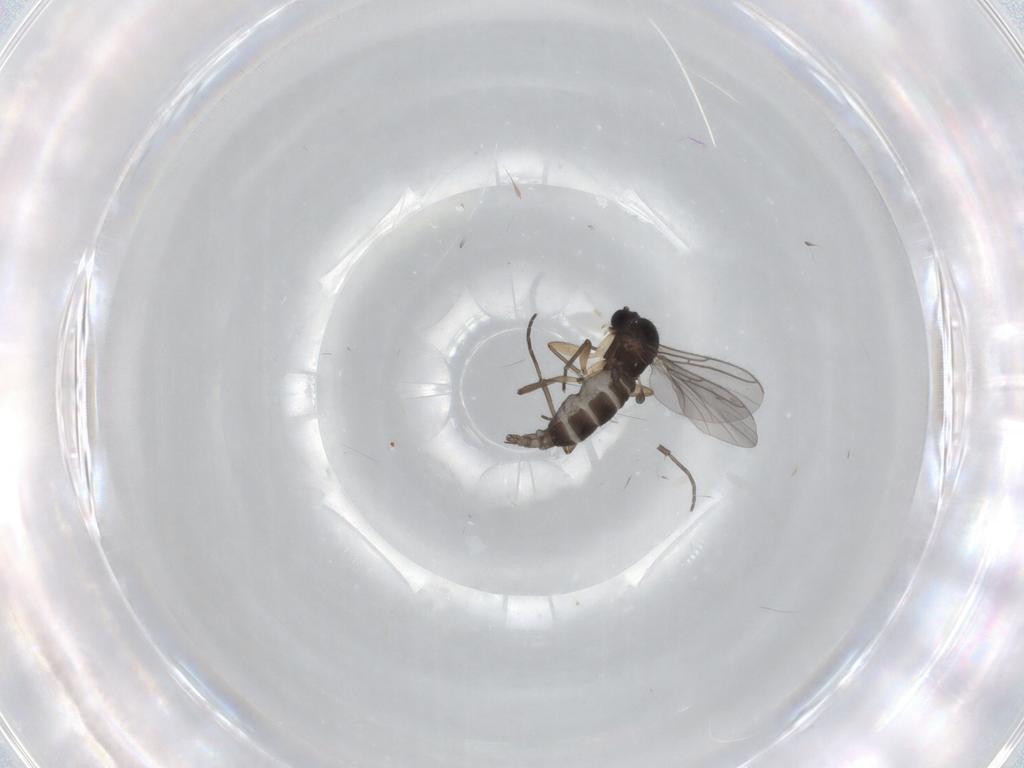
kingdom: Animalia
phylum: Arthropoda
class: Insecta
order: Diptera
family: Sciaridae
